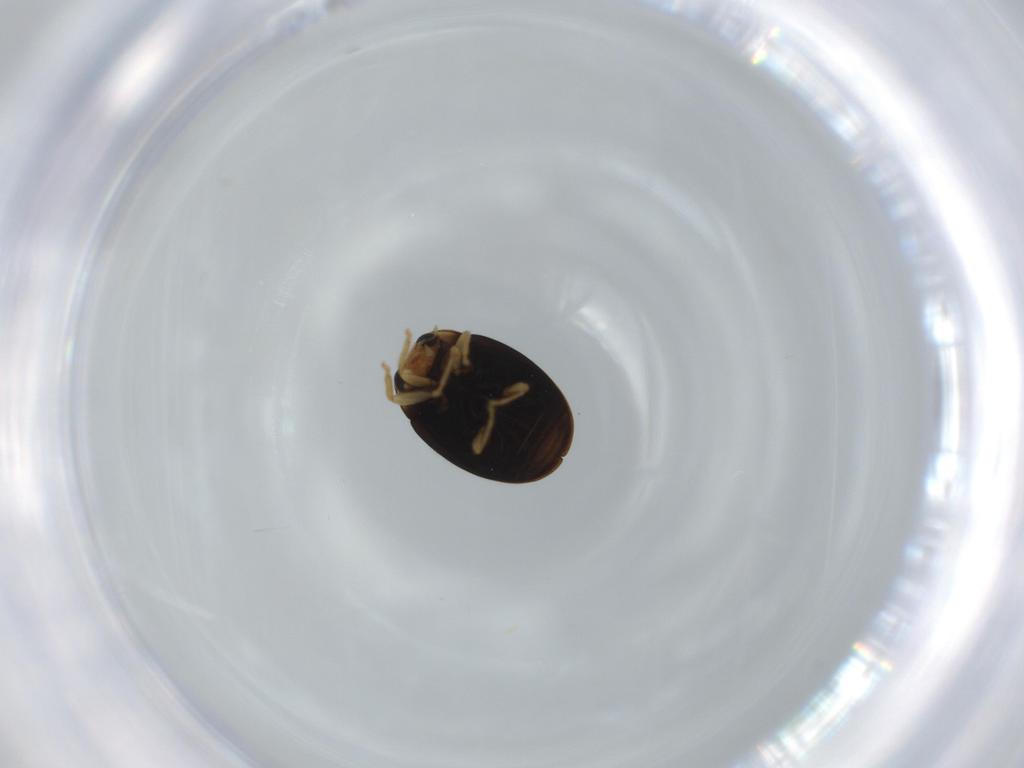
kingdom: Animalia
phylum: Arthropoda
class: Insecta
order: Coleoptera
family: Coccinellidae
